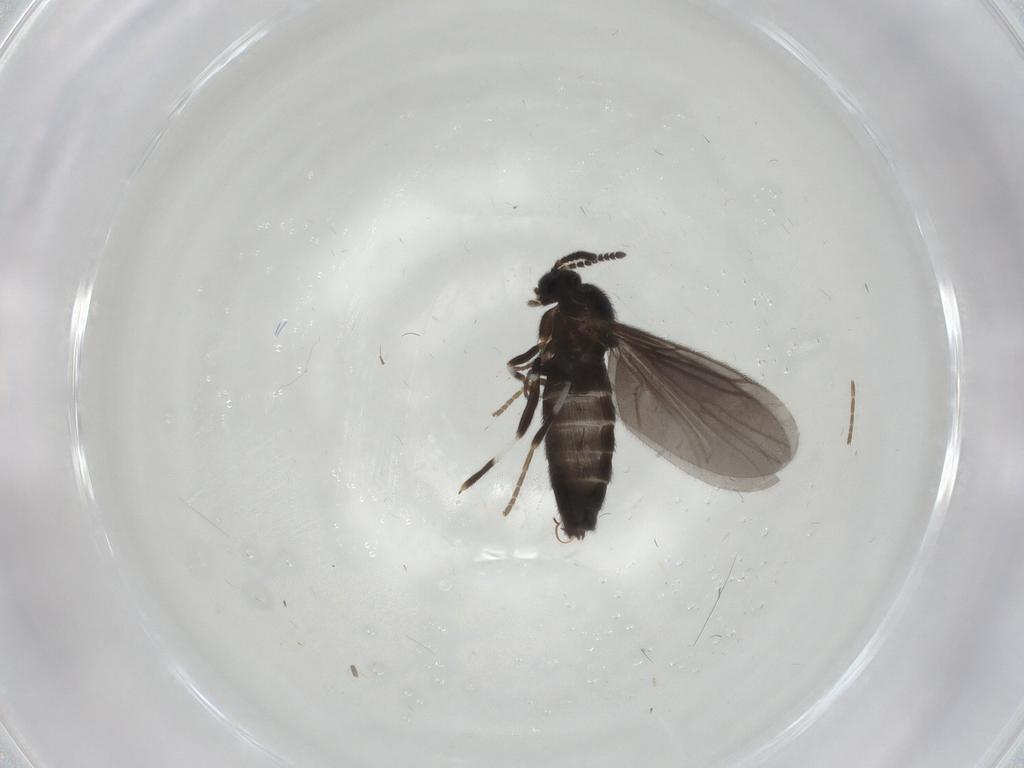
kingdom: Animalia
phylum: Arthropoda
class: Insecta
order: Diptera
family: Scatopsidae
